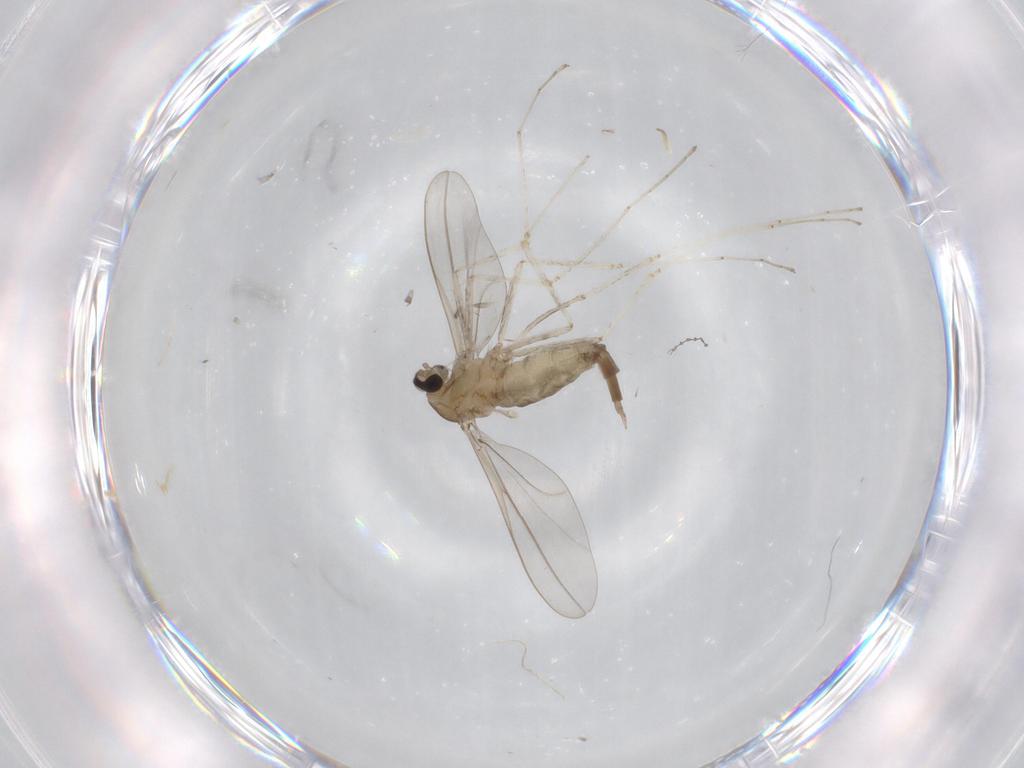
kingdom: Animalia
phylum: Arthropoda
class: Insecta
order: Diptera
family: Cecidomyiidae
